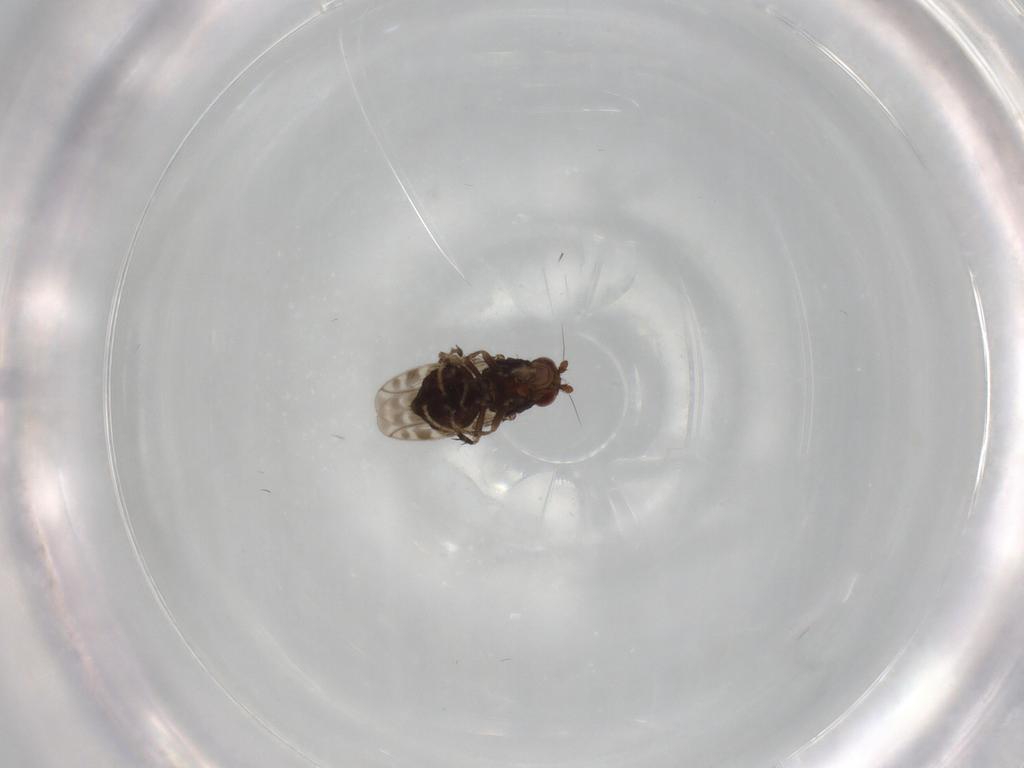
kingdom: Animalia
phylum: Arthropoda
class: Insecta
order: Diptera
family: Sphaeroceridae
